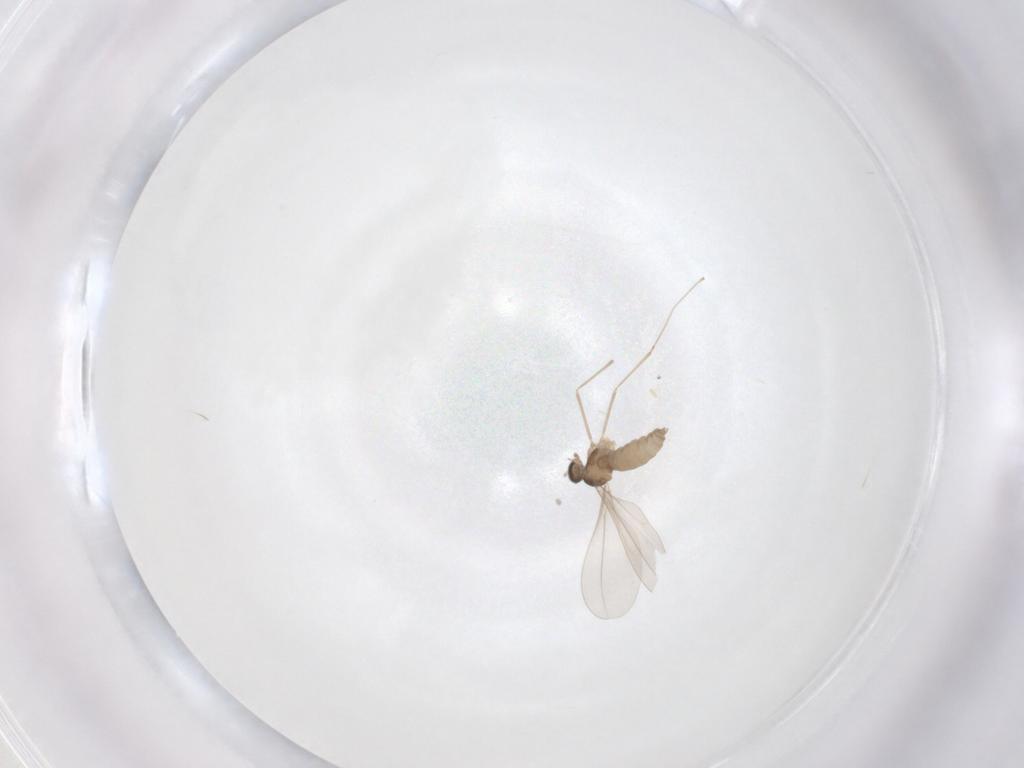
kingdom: Animalia
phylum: Arthropoda
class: Insecta
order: Diptera
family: Cecidomyiidae
